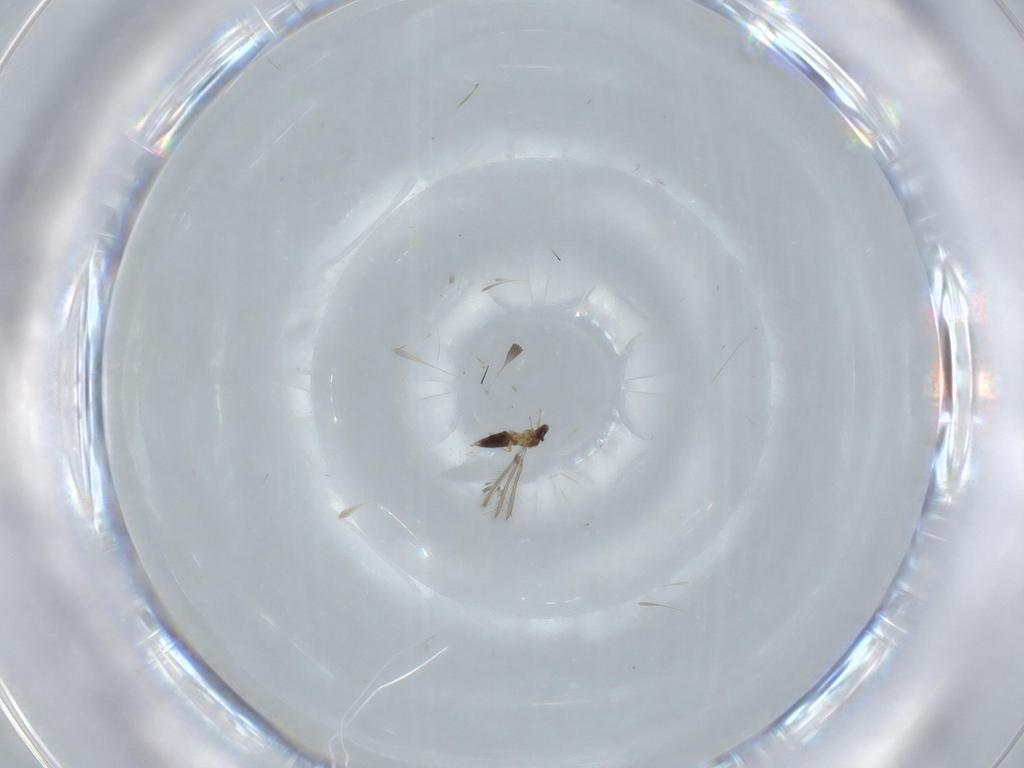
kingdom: Animalia
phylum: Arthropoda
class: Insecta
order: Hymenoptera
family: Mymaridae
